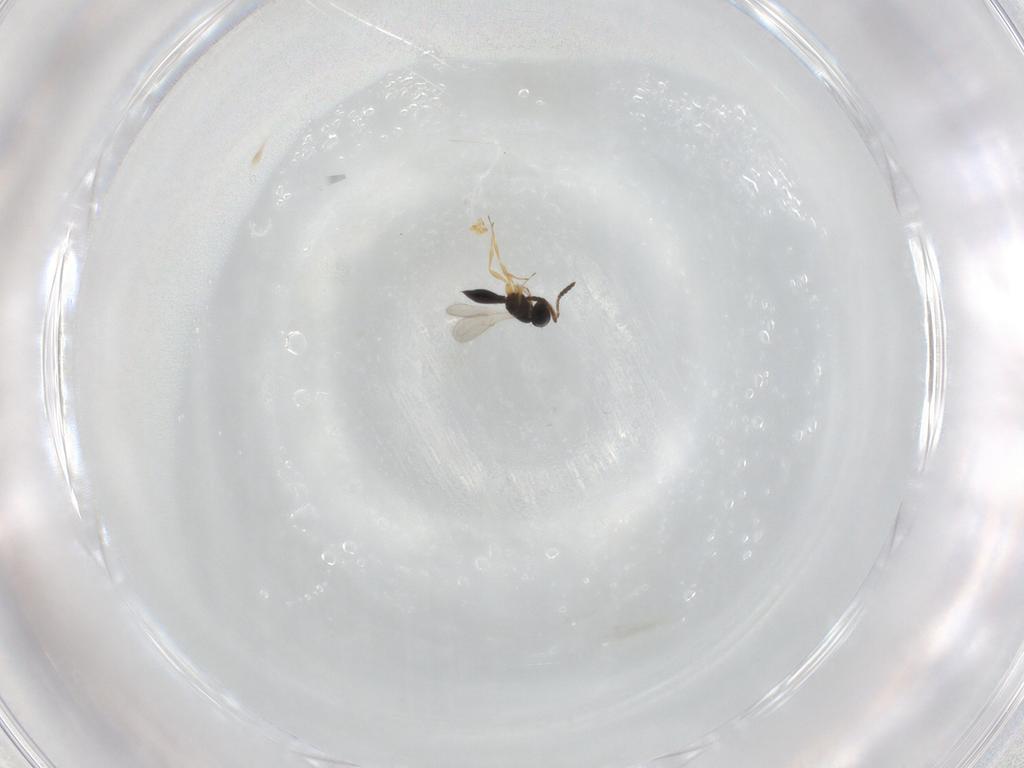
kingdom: Animalia
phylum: Arthropoda
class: Insecta
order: Hymenoptera
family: Scelionidae
